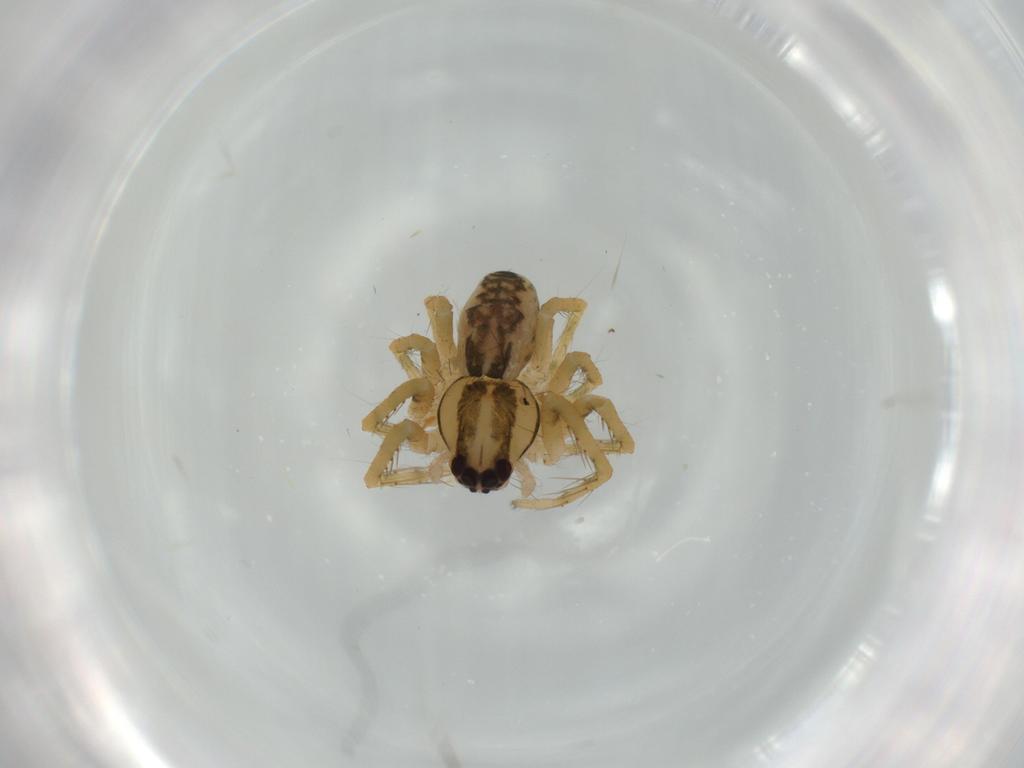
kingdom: Animalia
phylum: Arthropoda
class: Arachnida
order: Araneae
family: Ctenidae
